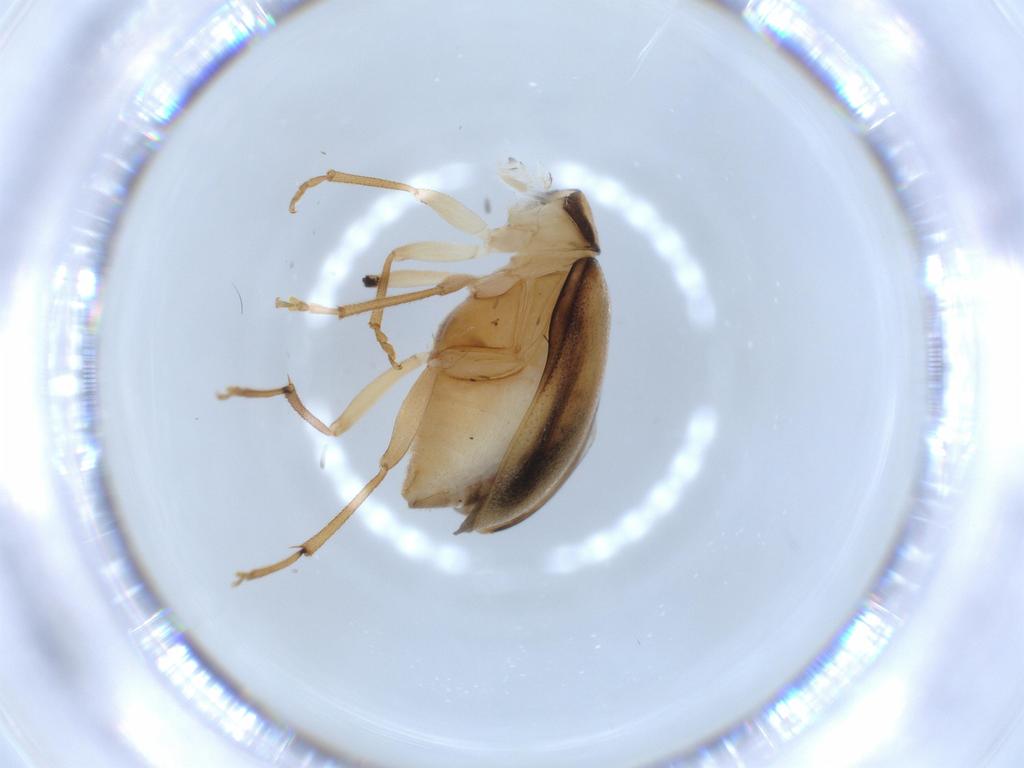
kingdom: Animalia
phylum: Arthropoda
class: Insecta
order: Coleoptera
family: Chrysomelidae
